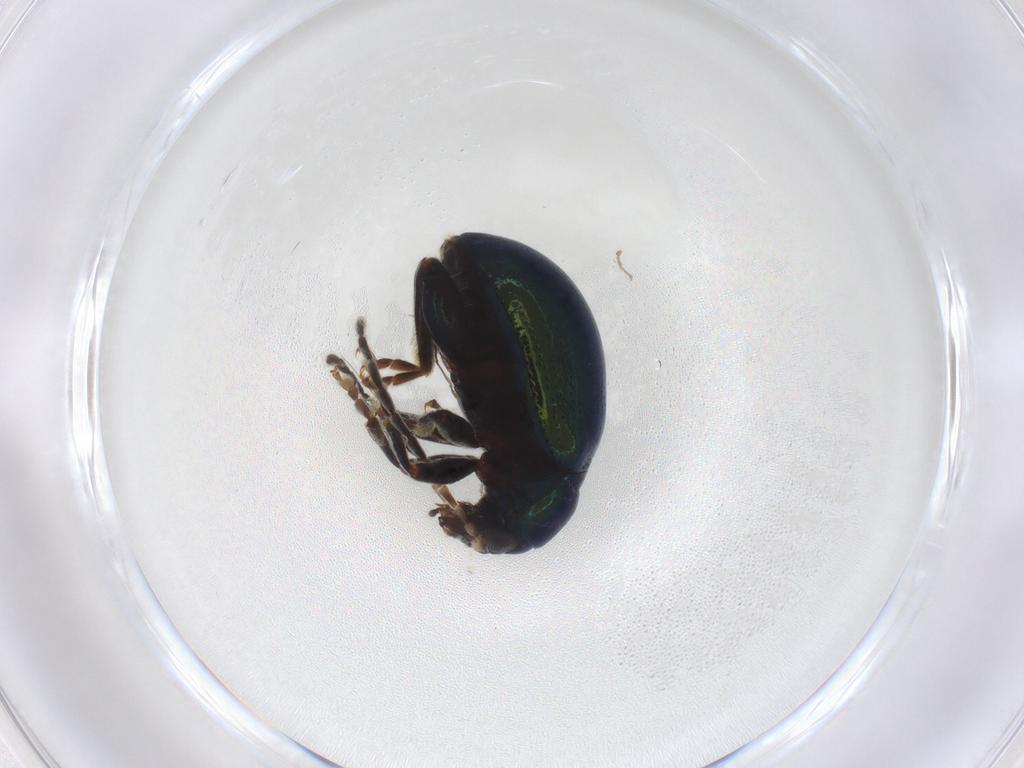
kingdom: Animalia
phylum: Arthropoda
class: Insecta
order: Coleoptera
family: Chrysomelidae
